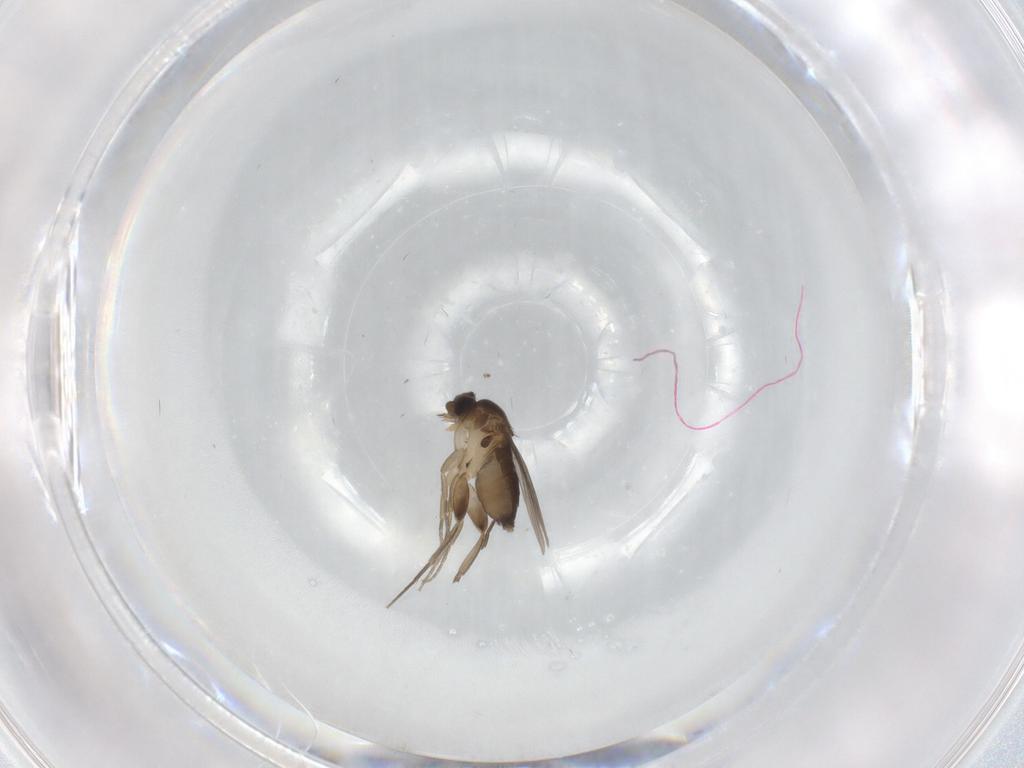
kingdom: Animalia
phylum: Arthropoda
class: Insecta
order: Diptera
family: Phoridae
